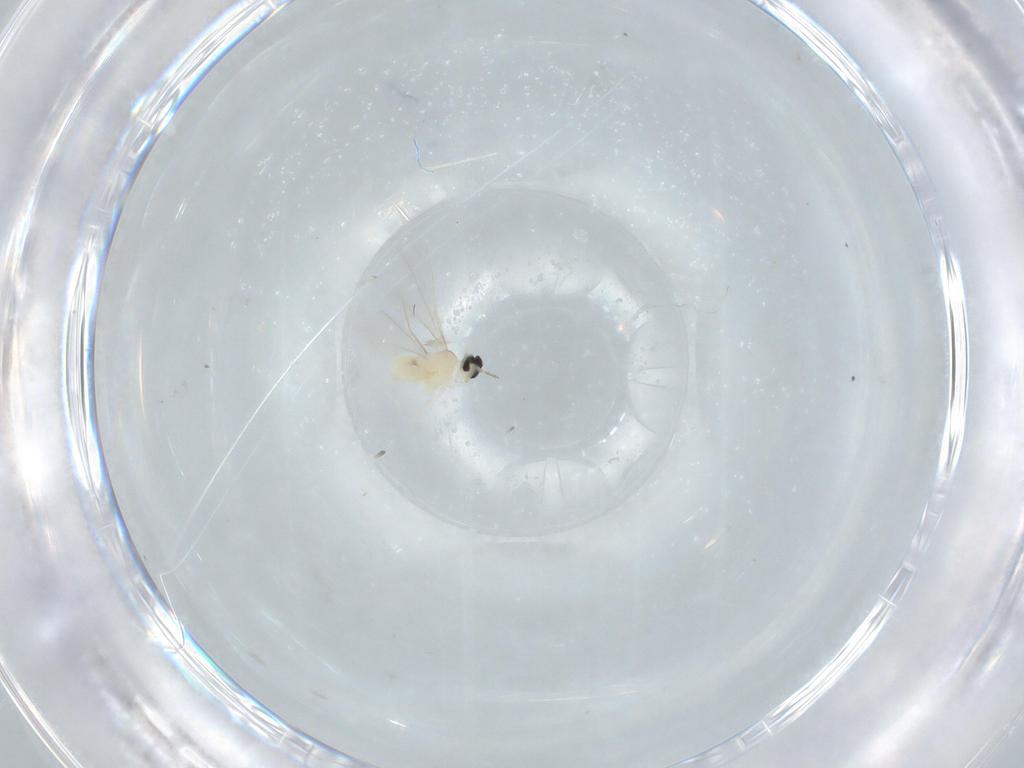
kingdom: Animalia
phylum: Arthropoda
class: Insecta
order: Diptera
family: Cecidomyiidae
